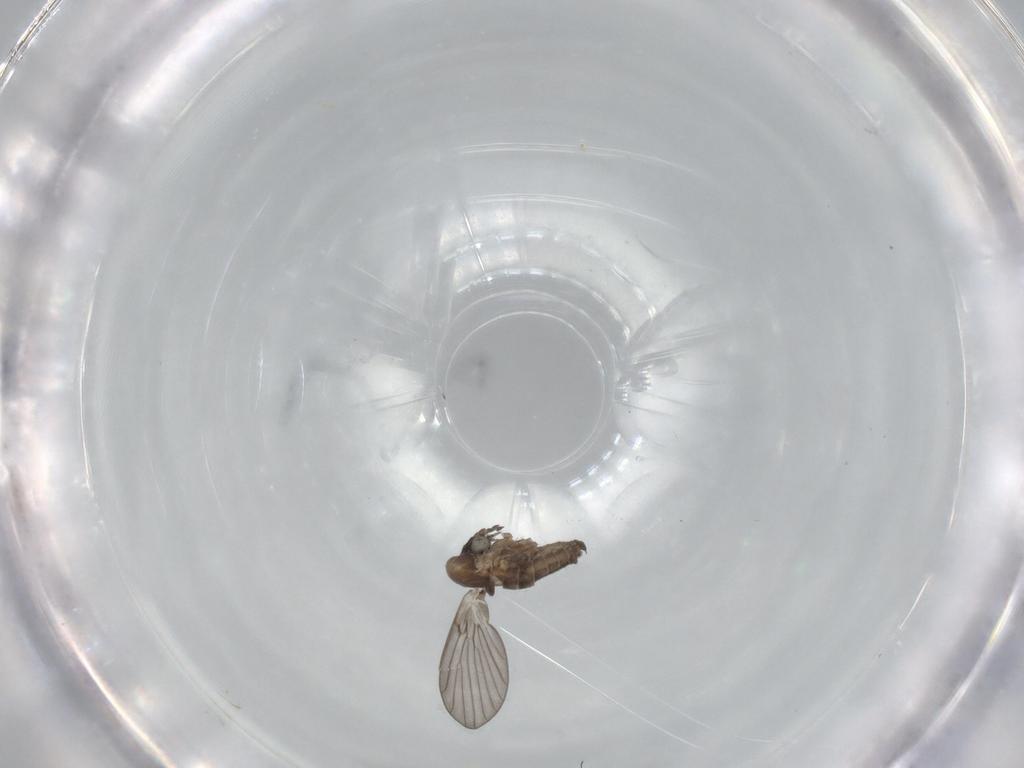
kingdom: Animalia
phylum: Arthropoda
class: Insecta
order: Diptera
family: Psychodidae
